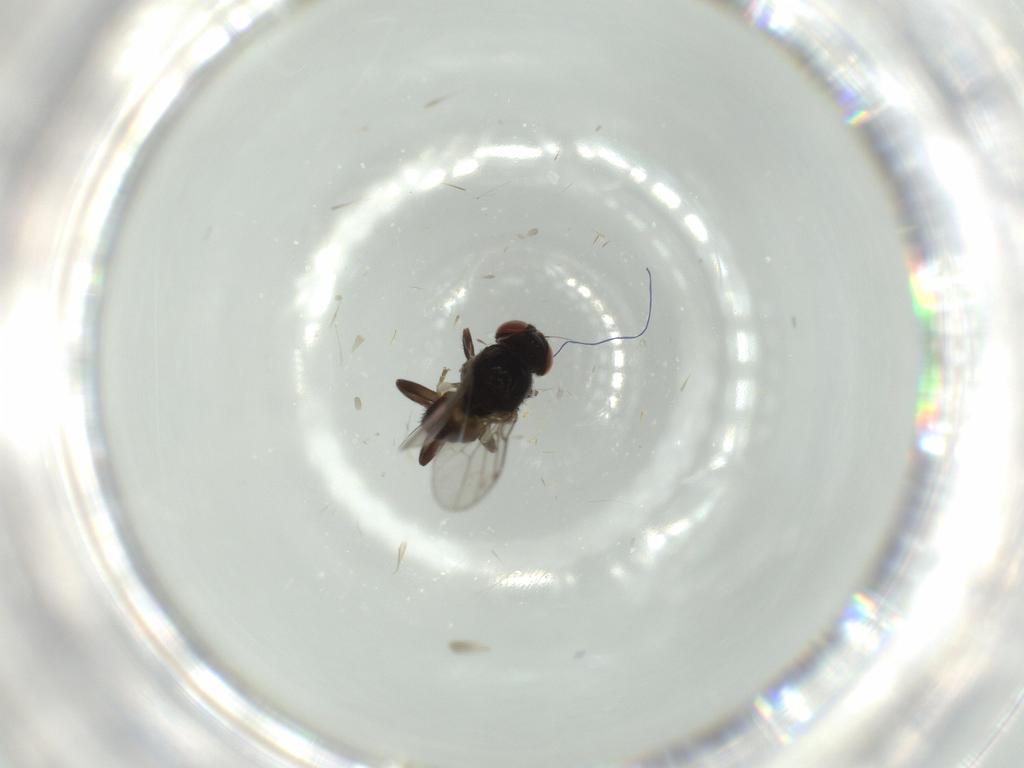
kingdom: Animalia
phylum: Arthropoda
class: Insecta
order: Diptera
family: Chloropidae
